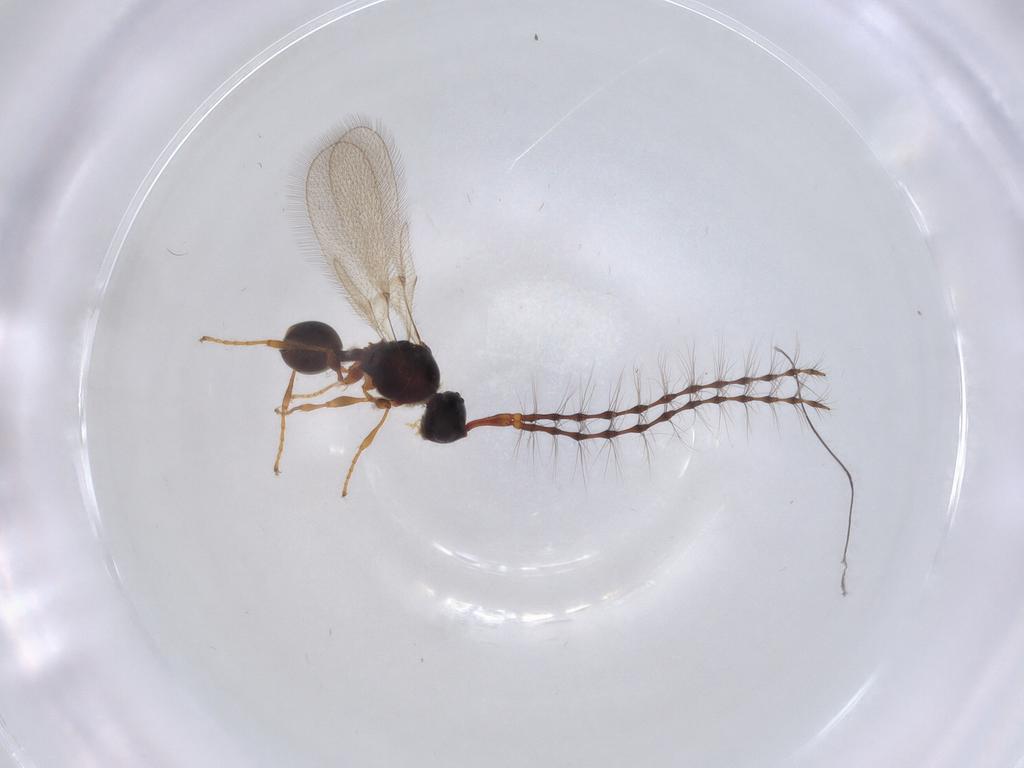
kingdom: Animalia
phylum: Arthropoda
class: Insecta
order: Hymenoptera
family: Diapriidae
